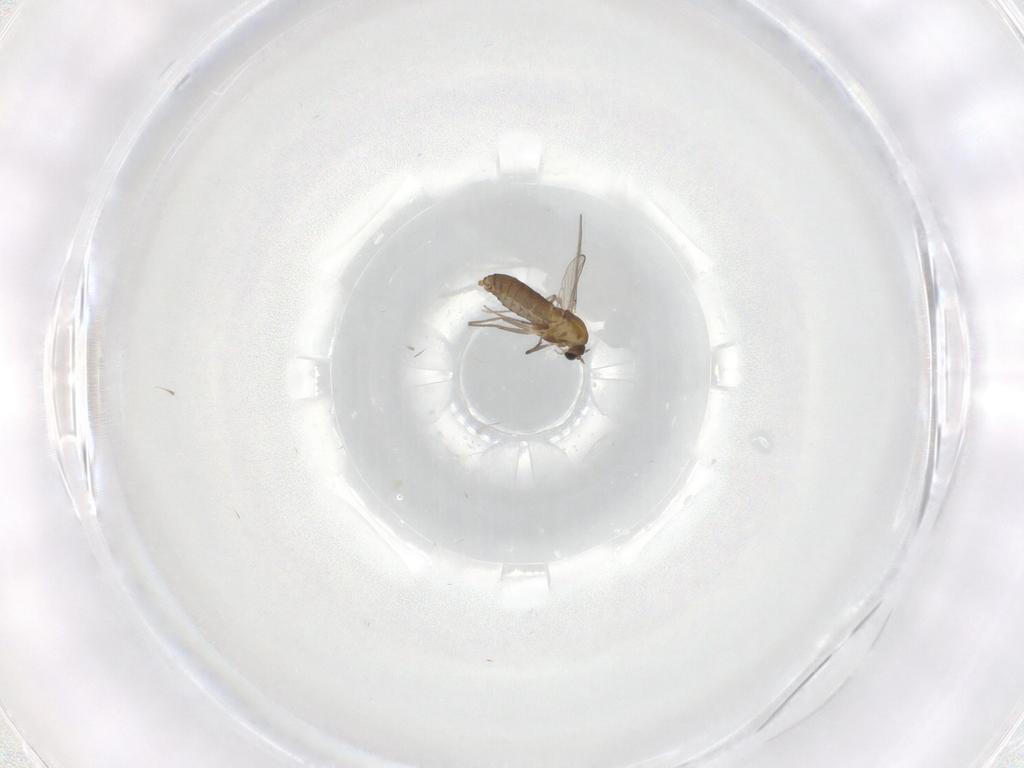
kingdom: Animalia
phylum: Arthropoda
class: Insecta
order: Diptera
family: Chironomidae
